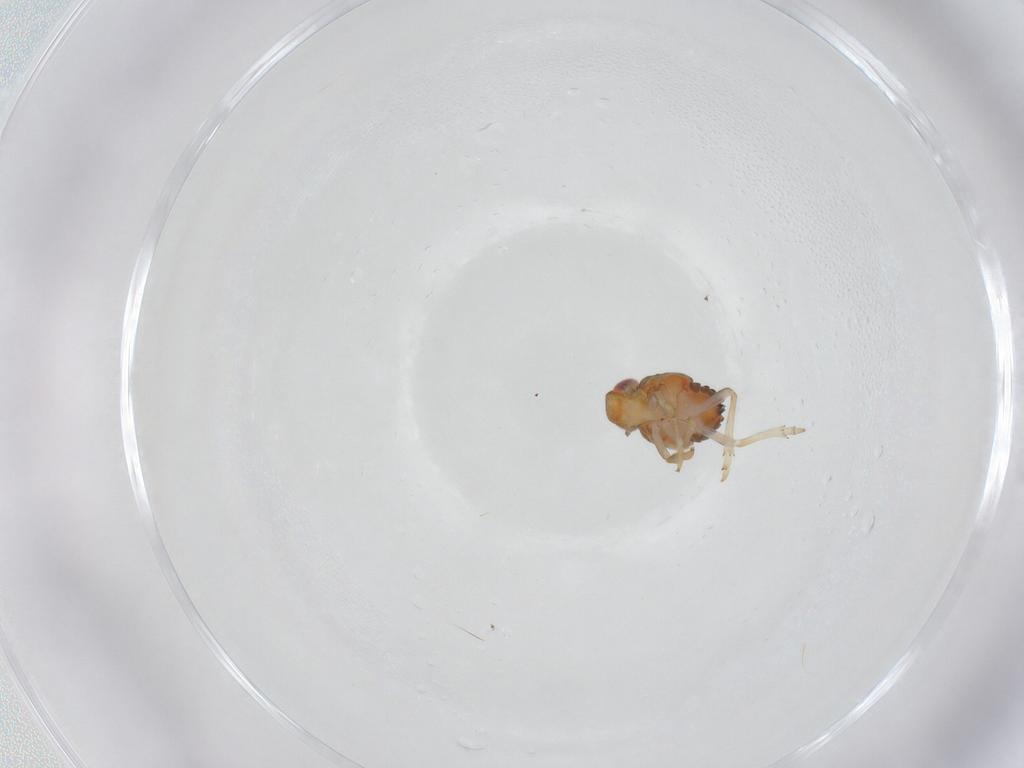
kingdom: Animalia
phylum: Arthropoda
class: Insecta
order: Hemiptera
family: Issidae
